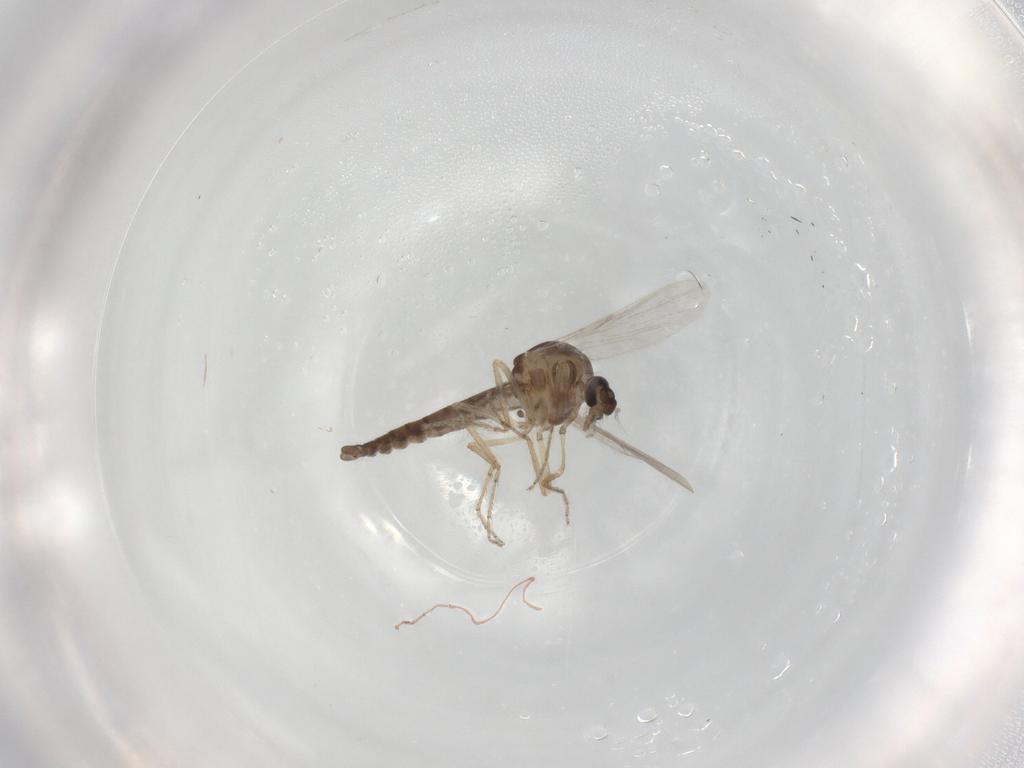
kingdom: Animalia
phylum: Arthropoda
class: Insecta
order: Diptera
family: Ceratopogonidae
